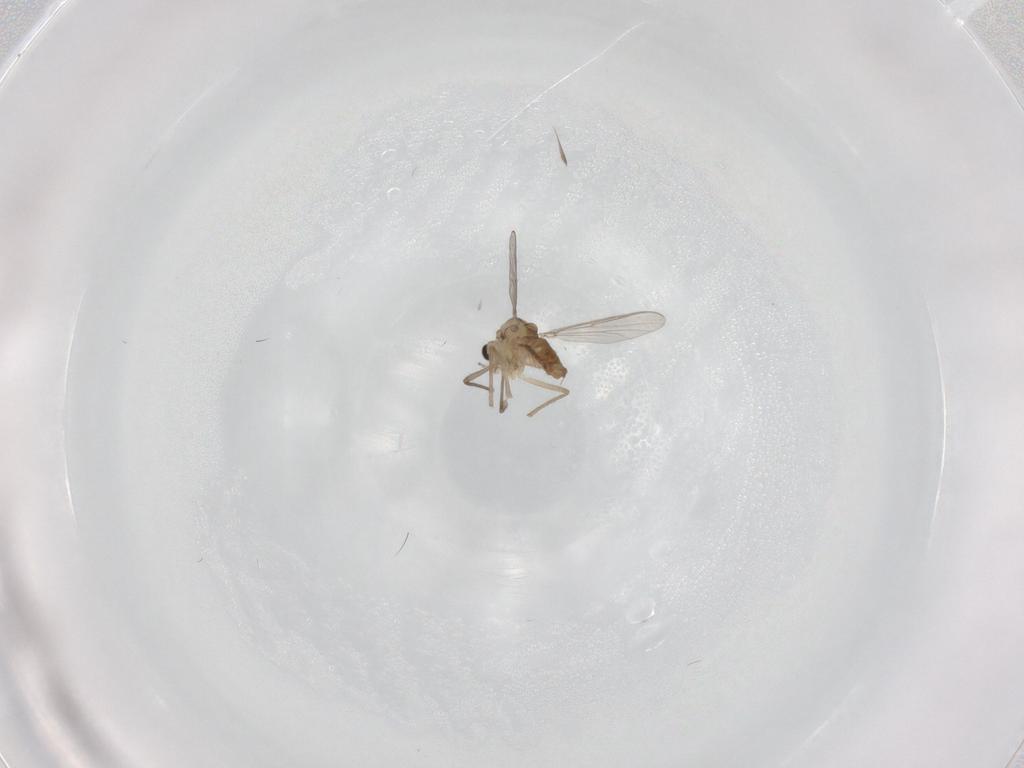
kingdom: Animalia
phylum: Arthropoda
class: Insecta
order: Diptera
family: Chironomidae
